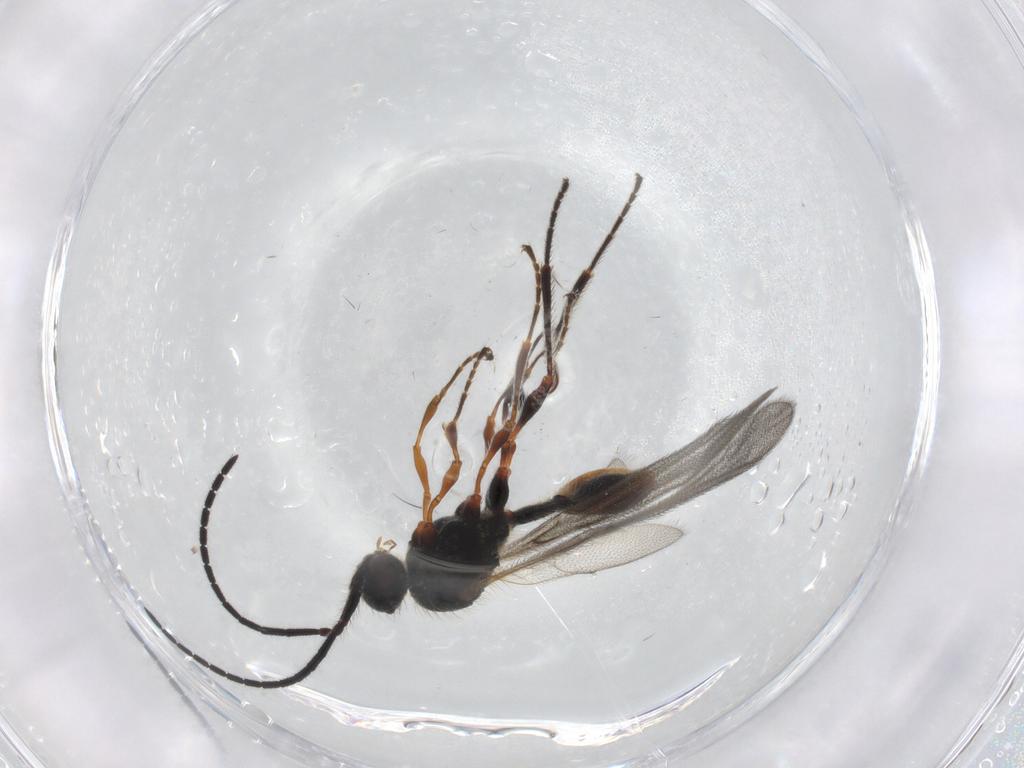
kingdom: Animalia
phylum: Arthropoda
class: Insecta
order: Hymenoptera
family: Diapriidae
